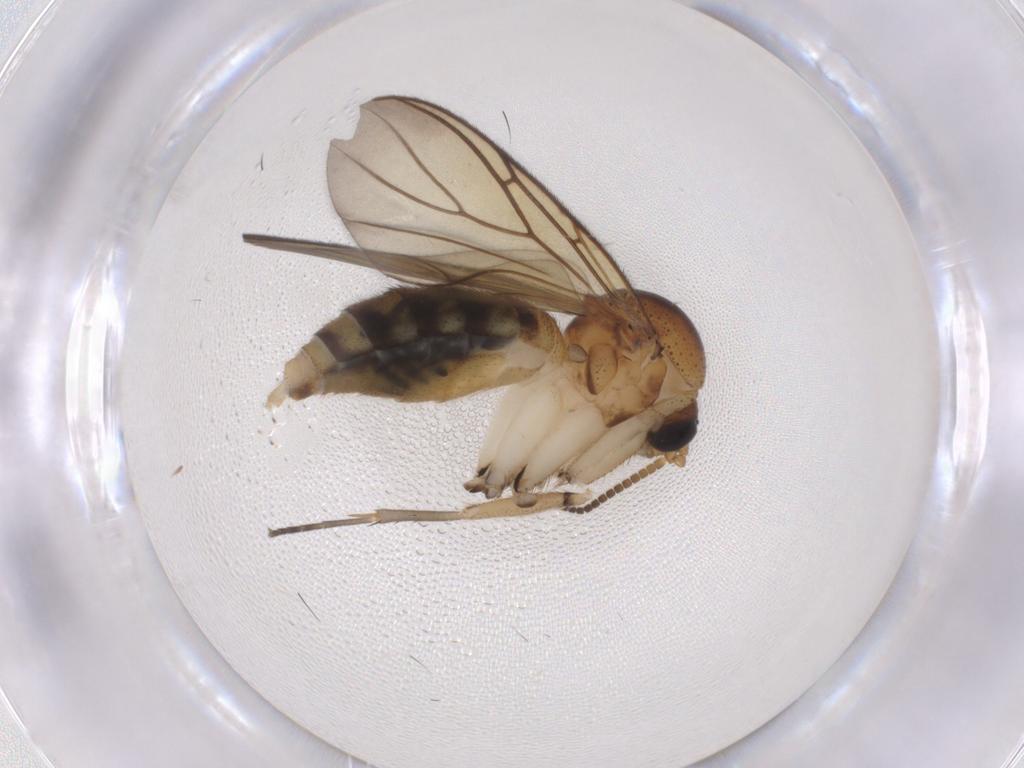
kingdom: Animalia
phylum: Arthropoda
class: Insecta
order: Diptera
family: Mycetophilidae
